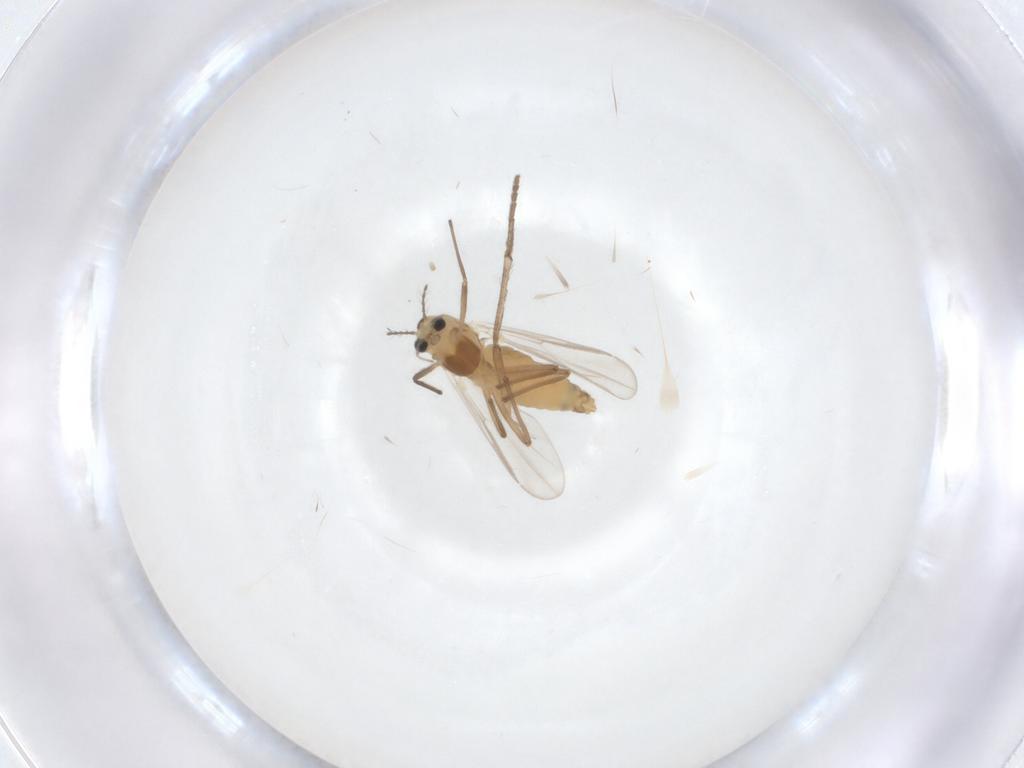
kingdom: Animalia
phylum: Arthropoda
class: Insecta
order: Diptera
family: Chironomidae
